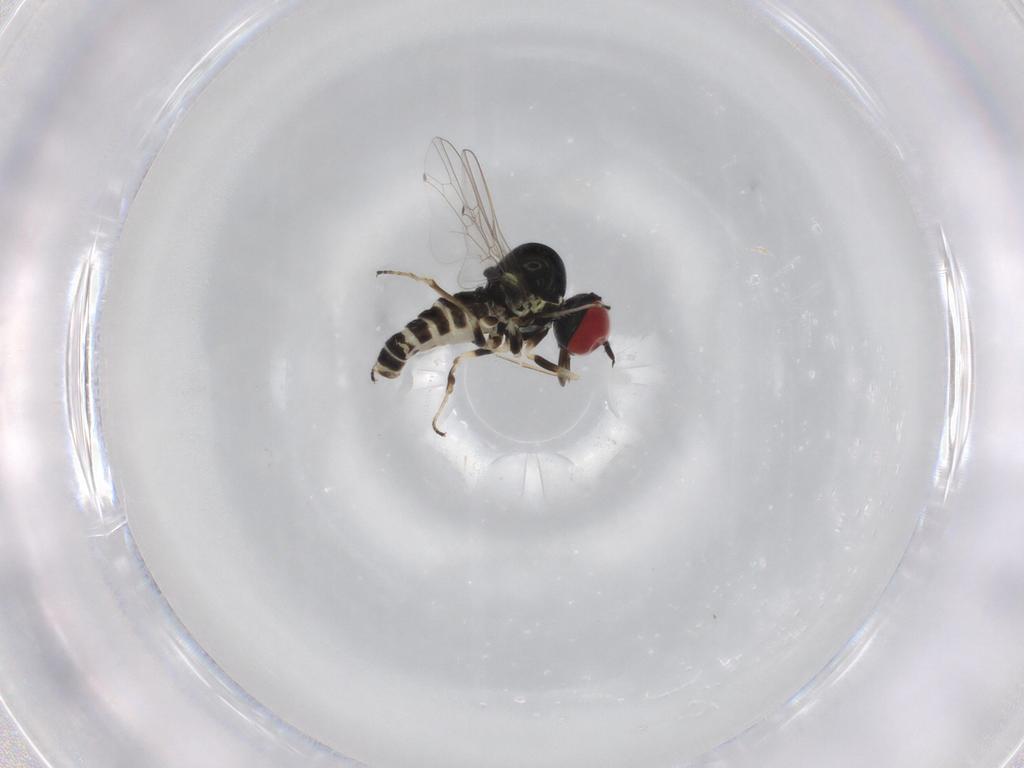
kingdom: Animalia
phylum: Arthropoda
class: Insecta
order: Diptera
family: Bombyliidae
